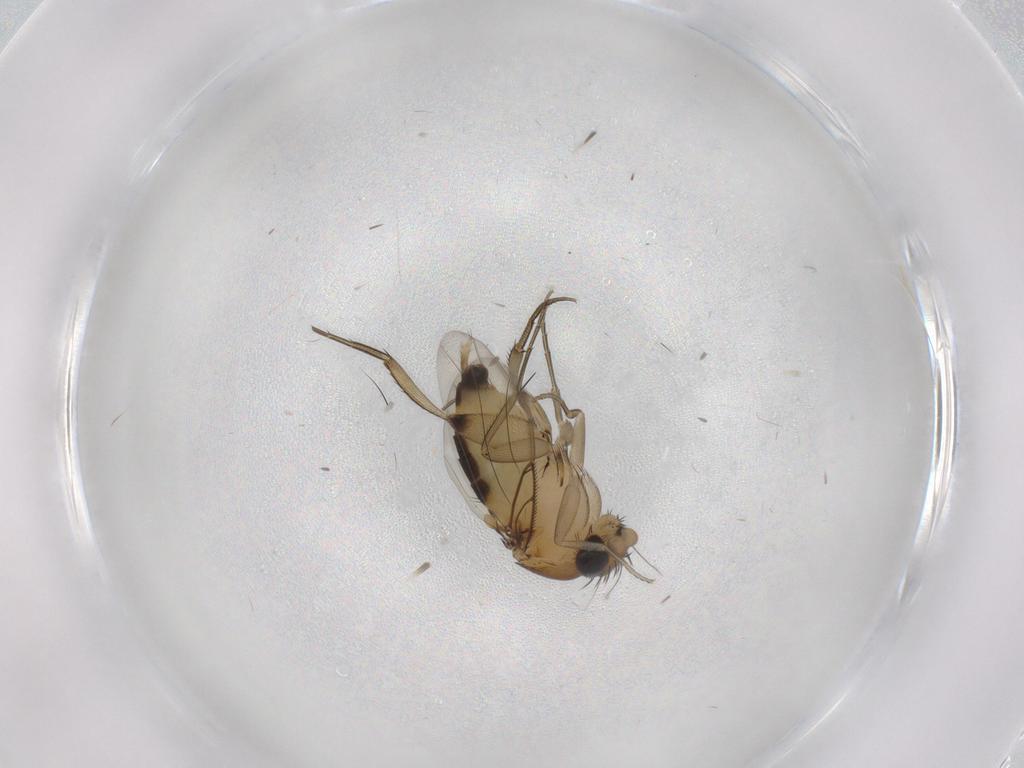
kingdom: Animalia
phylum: Arthropoda
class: Insecta
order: Diptera
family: Phoridae
